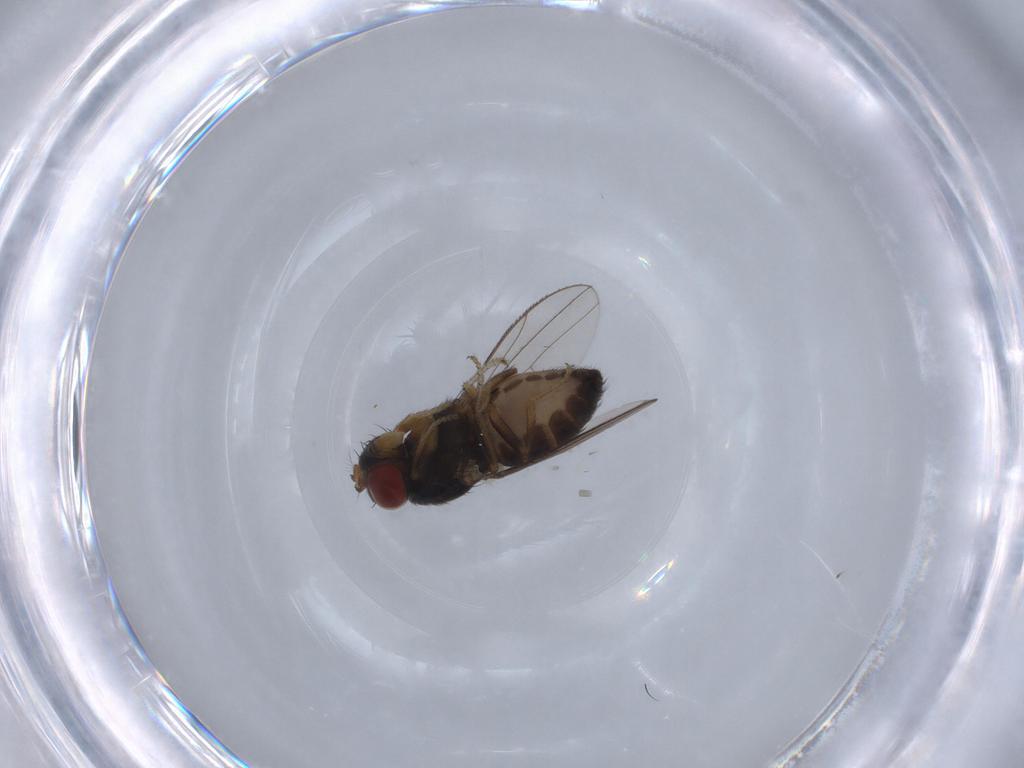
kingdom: Animalia
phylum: Arthropoda
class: Insecta
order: Diptera
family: Ephydridae
